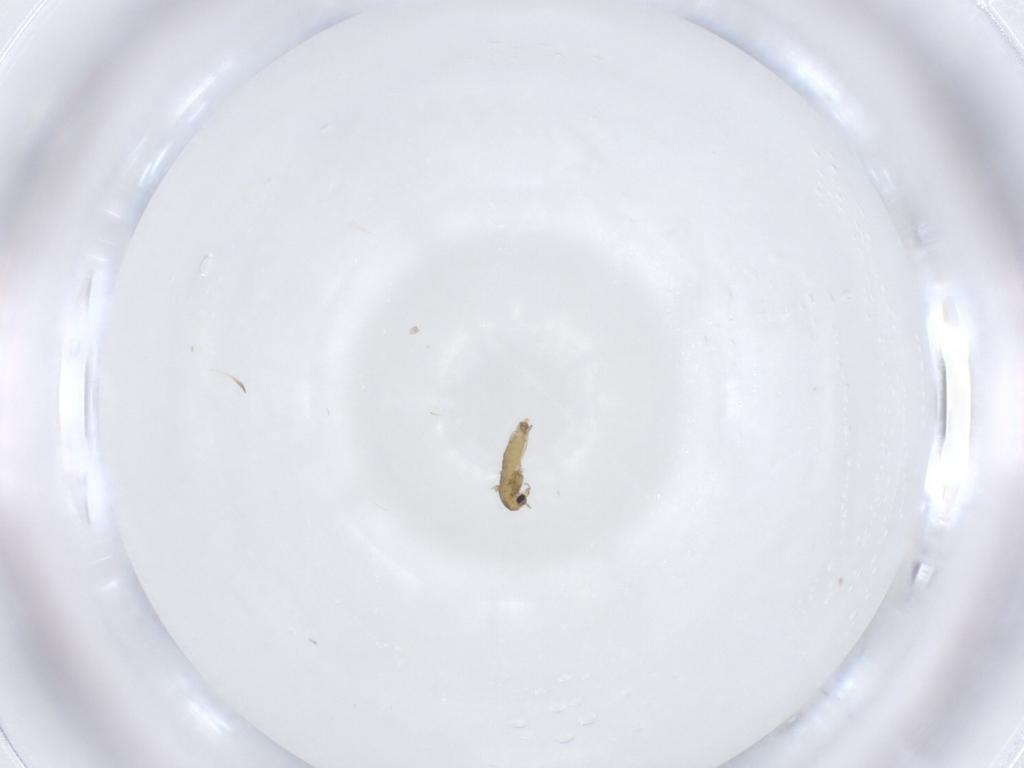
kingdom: Animalia
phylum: Arthropoda
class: Insecta
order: Diptera
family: Chironomidae
